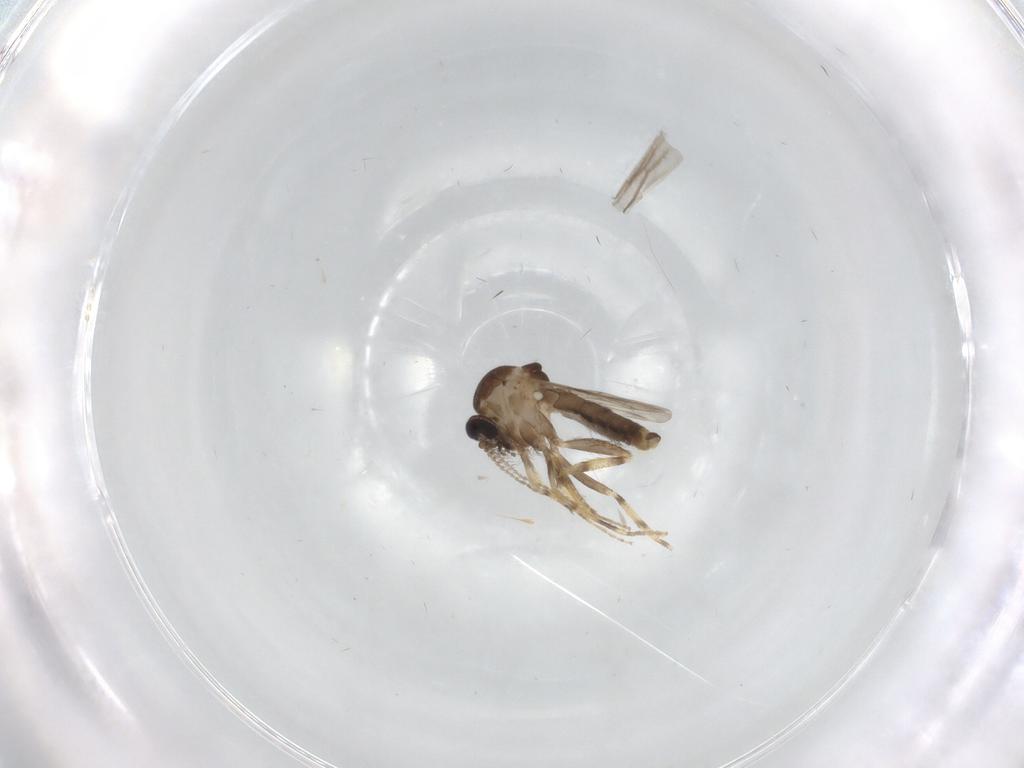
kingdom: Animalia
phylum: Arthropoda
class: Insecta
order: Diptera
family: Ceratopogonidae
